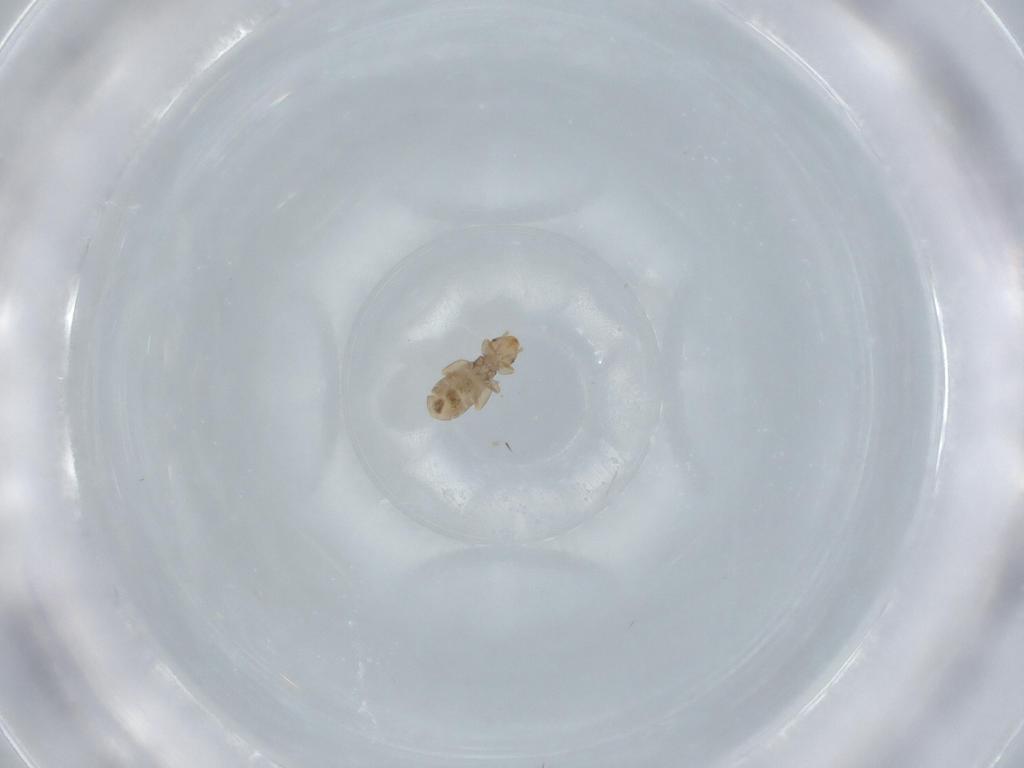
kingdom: Animalia
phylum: Arthropoda
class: Insecta
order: Psocodea
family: Liposcelididae
